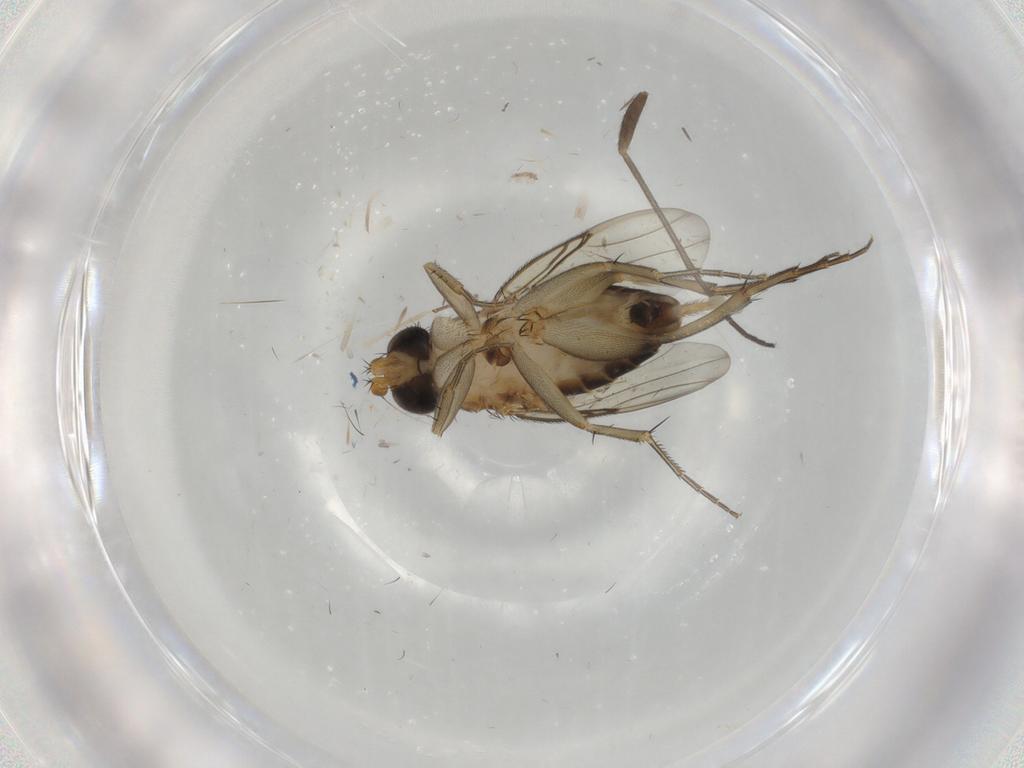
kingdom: Animalia
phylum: Arthropoda
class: Insecta
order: Diptera
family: Phoridae
